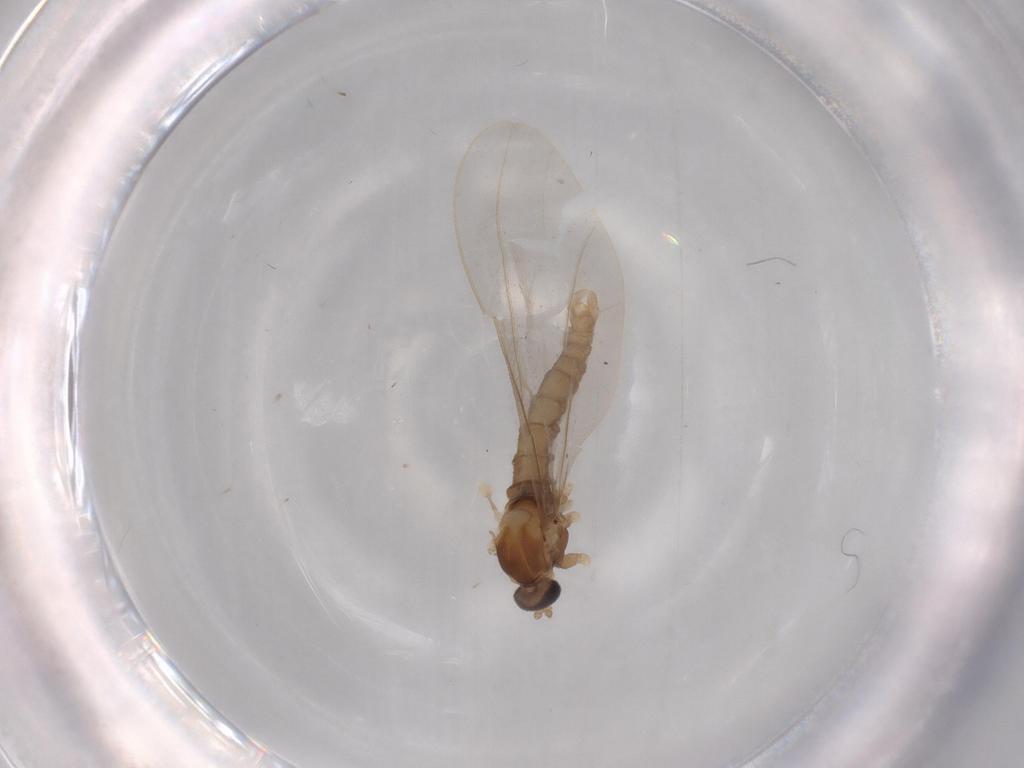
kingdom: Animalia
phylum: Arthropoda
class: Insecta
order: Diptera
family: Cecidomyiidae
